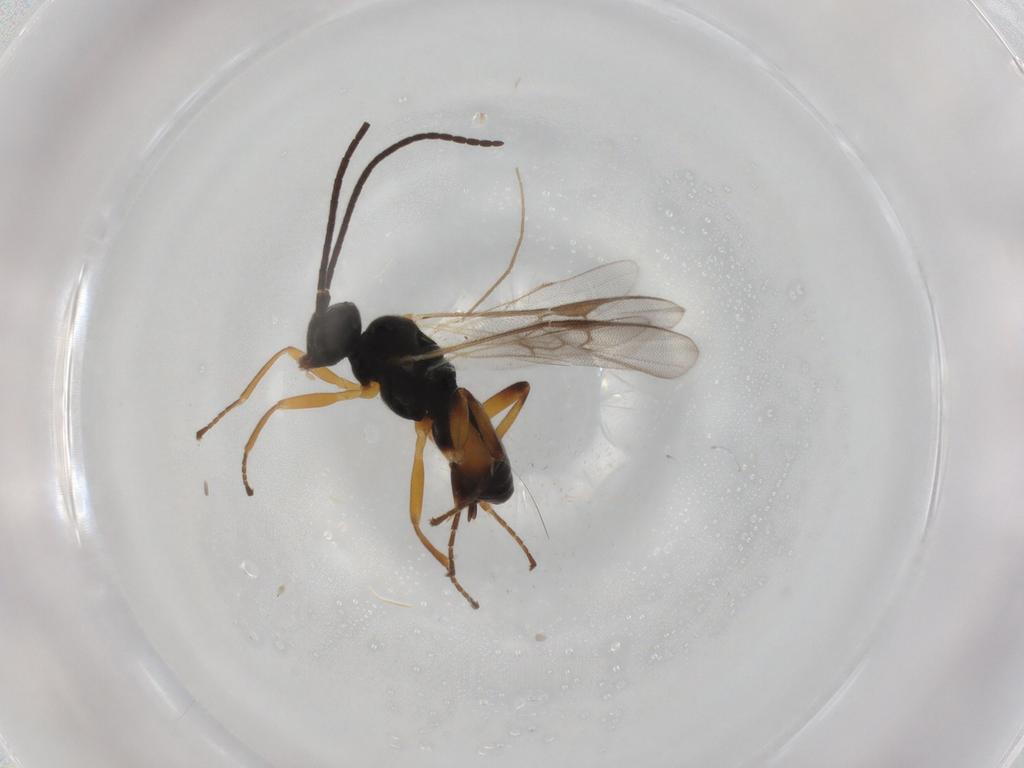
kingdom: Animalia
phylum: Arthropoda
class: Insecta
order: Hymenoptera
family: Braconidae
